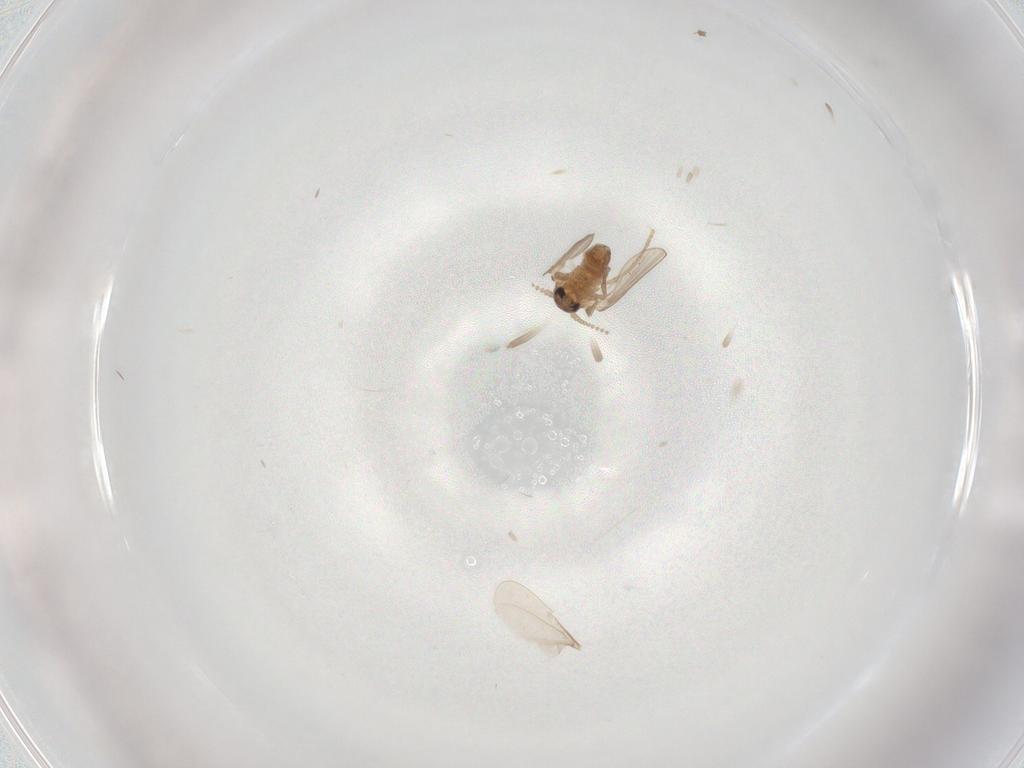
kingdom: Animalia
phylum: Arthropoda
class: Insecta
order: Diptera
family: Psychodidae
